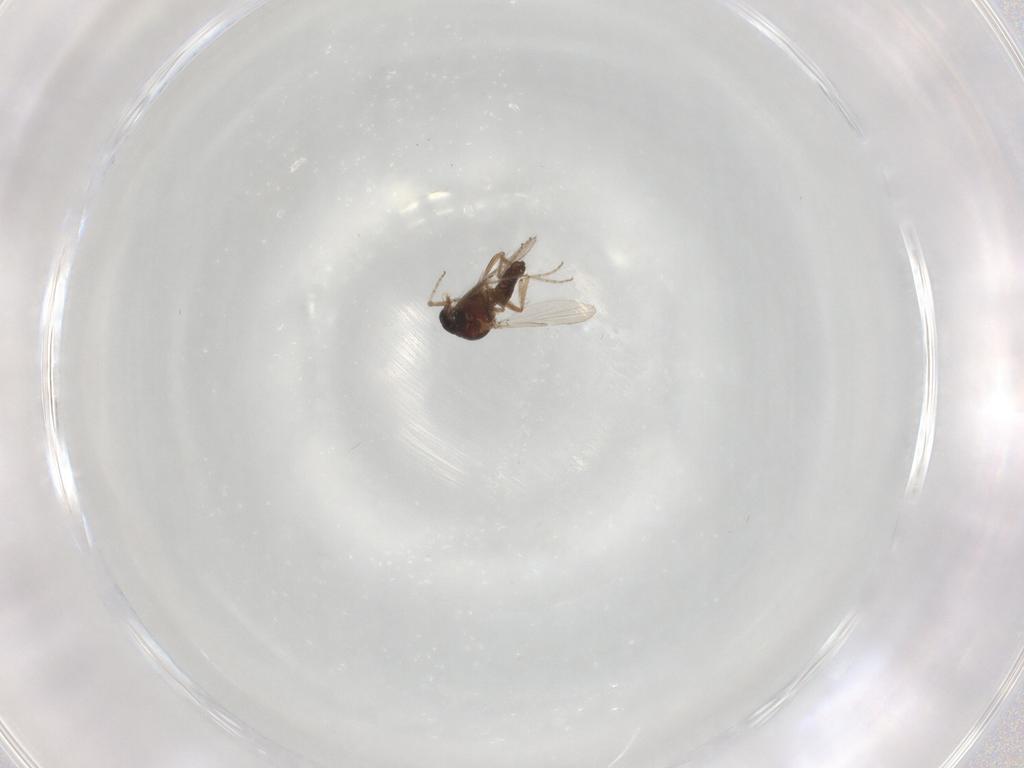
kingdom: Animalia
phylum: Arthropoda
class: Insecta
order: Diptera
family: Ceratopogonidae
